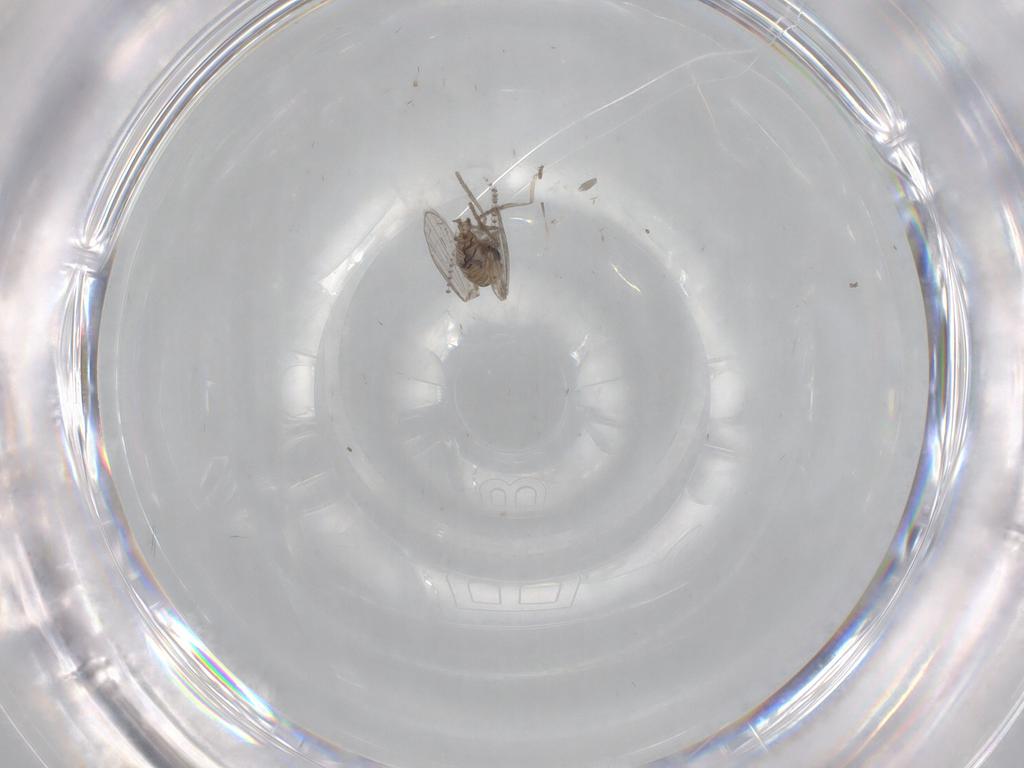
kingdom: Animalia
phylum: Arthropoda
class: Insecta
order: Diptera
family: Psychodidae
